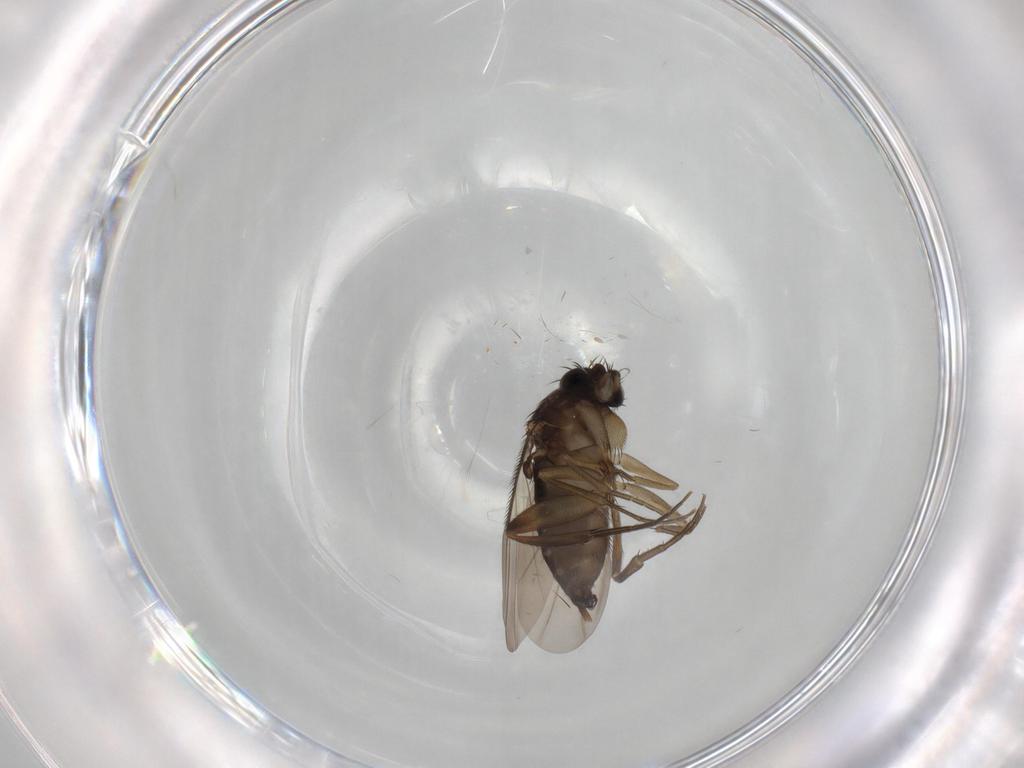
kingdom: Animalia
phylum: Arthropoda
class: Insecta
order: Diptera
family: Phoridae
